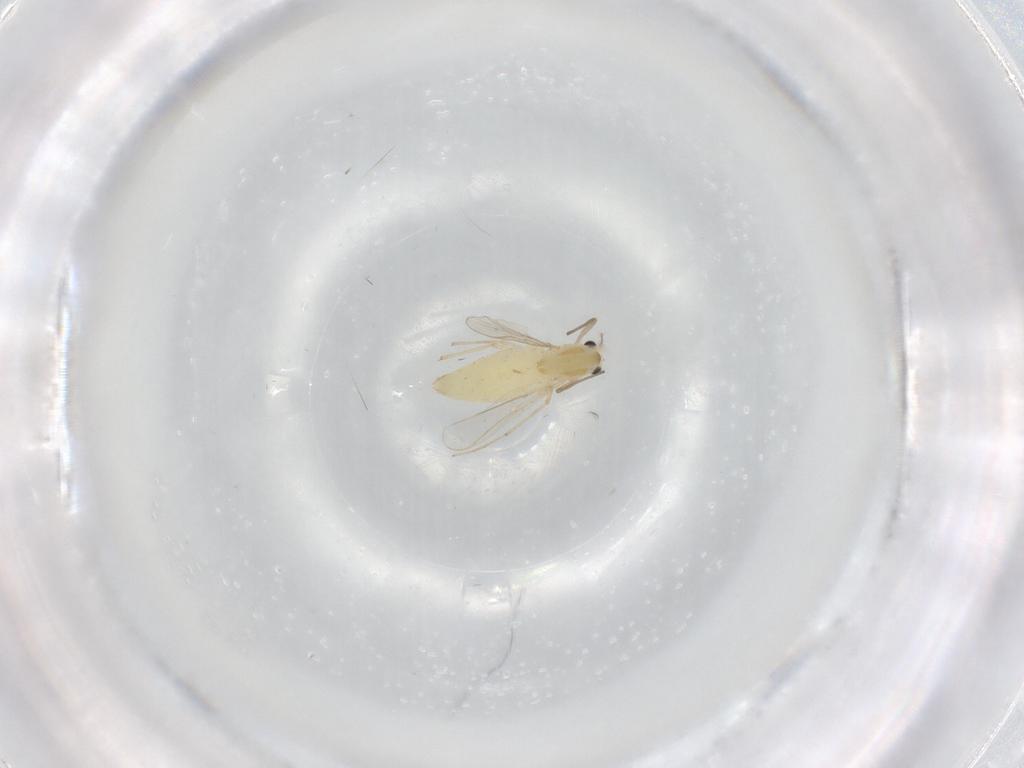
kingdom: Animalia
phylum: Arthropoda
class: Insecta
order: Diptera
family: Chironomidae
